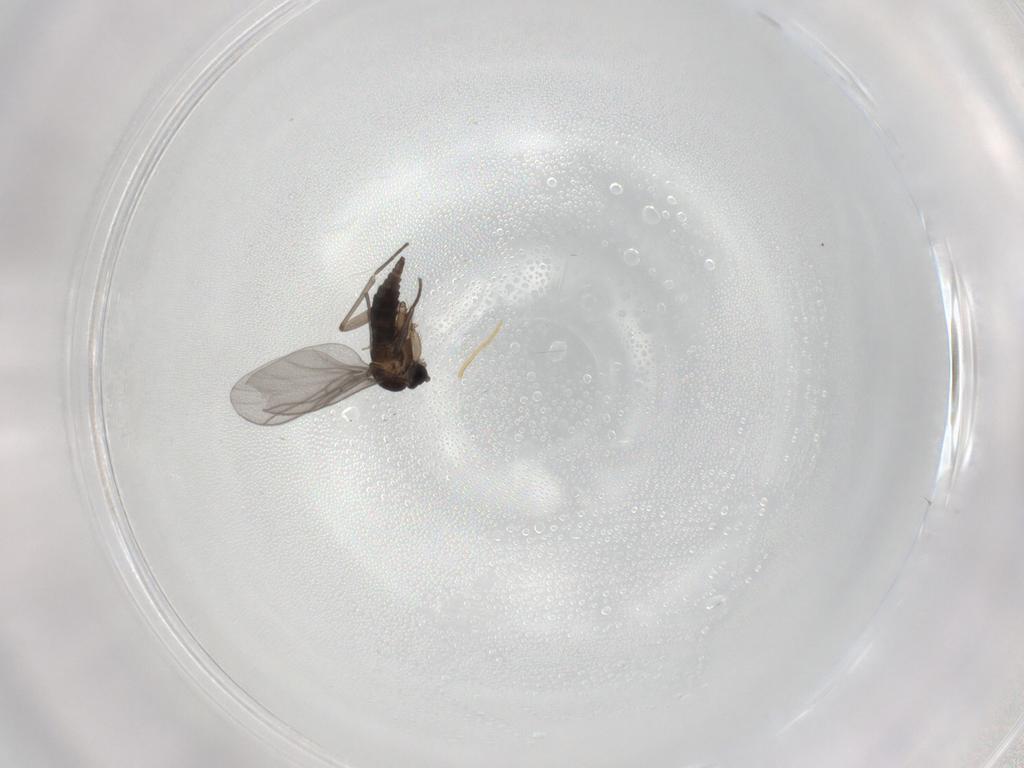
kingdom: Animalia
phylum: Arthropoda
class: Insecta
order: Diptera
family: Sciaridae
